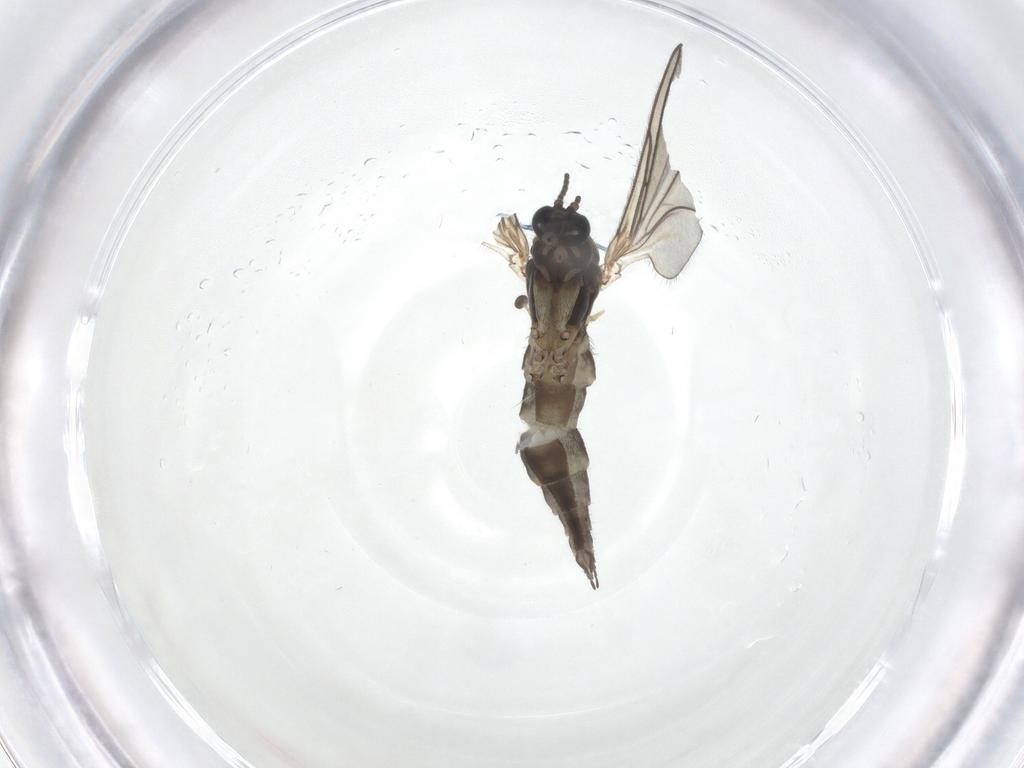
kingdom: Animalia
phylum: Arthropoda
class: Insecta
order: Diptera
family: Sciaridae
